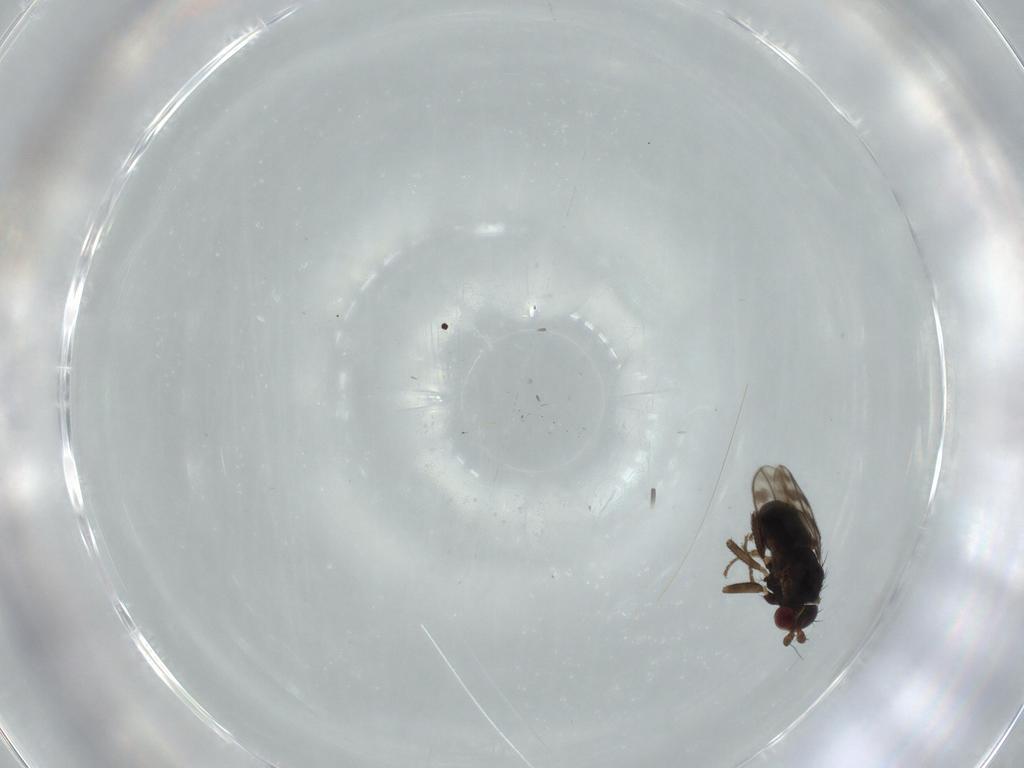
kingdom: Animalia
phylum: Arthropoda
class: Insecta
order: Diptera
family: Sphaeroceridae
